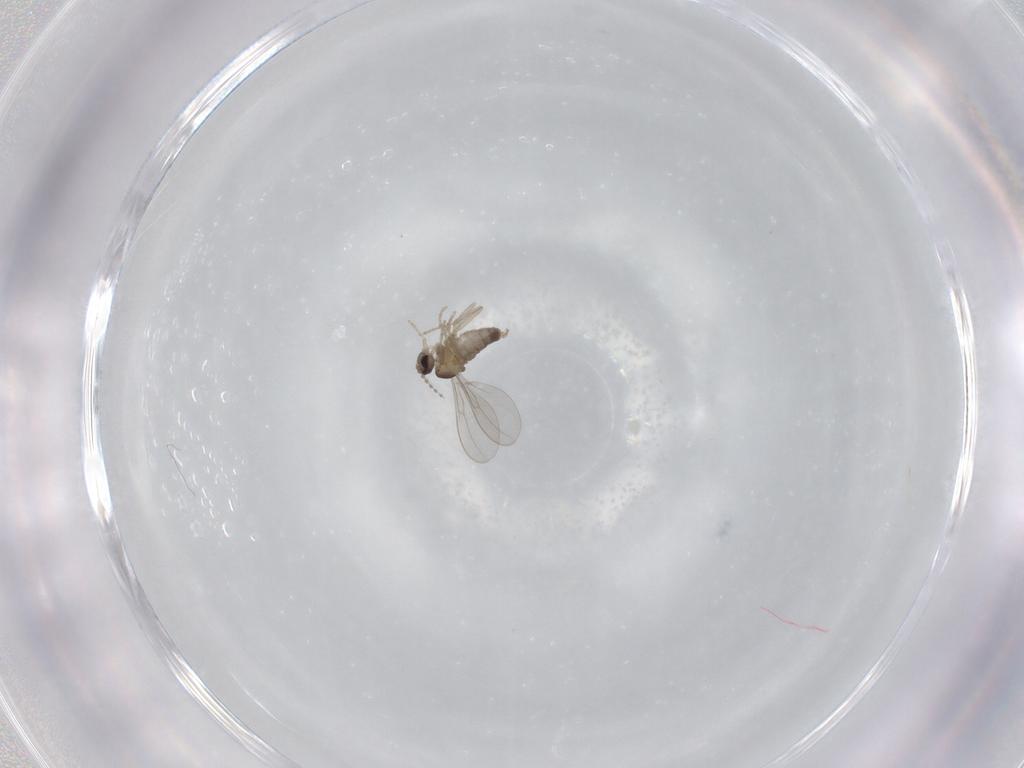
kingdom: Animalia
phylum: Arthropoda
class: Insecta
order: Diptera
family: Cecidomyiidae
